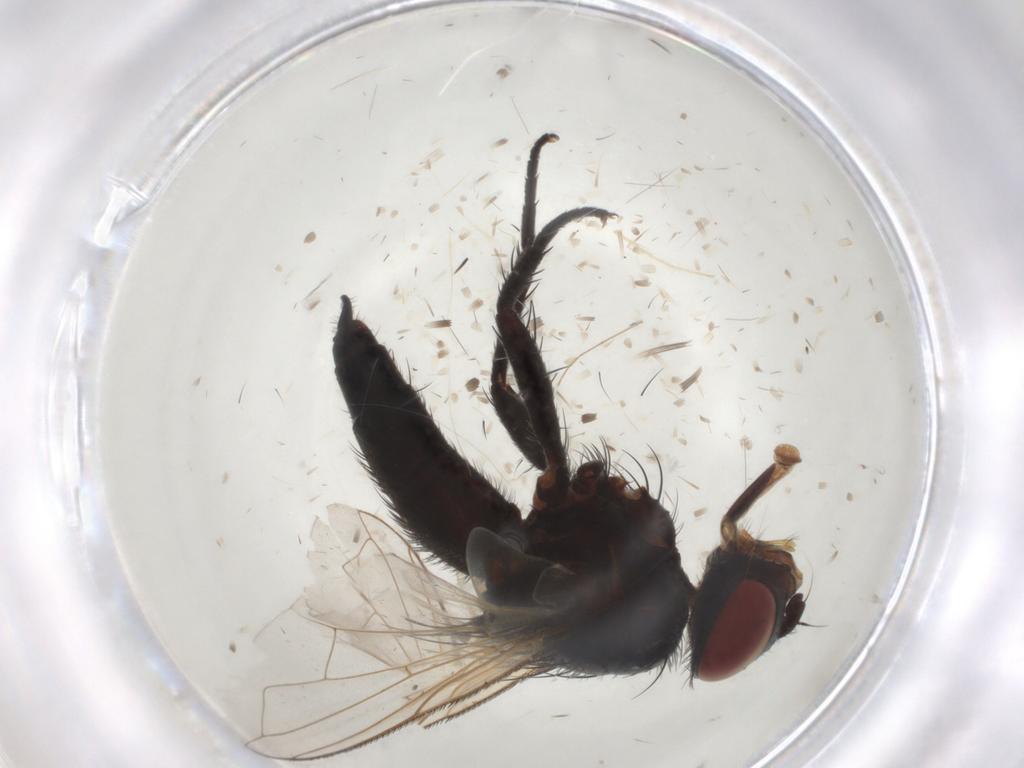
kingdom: Animalia
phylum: Arthropoda
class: Insecta
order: Diptera
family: Tachinidae
